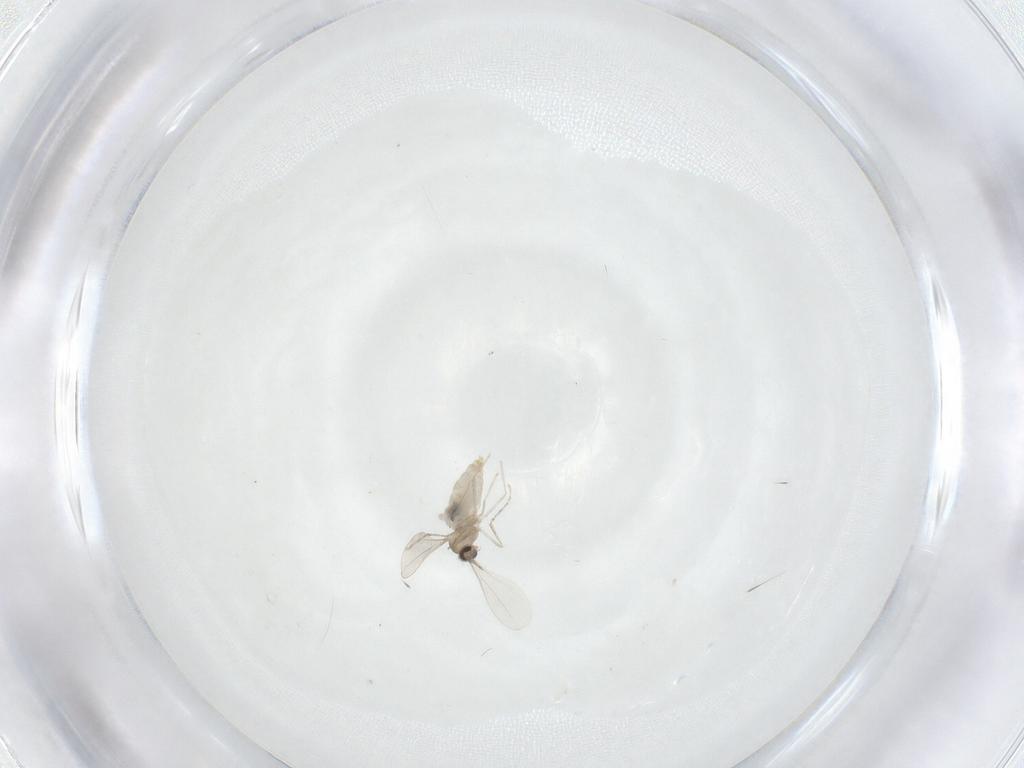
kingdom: Animalia
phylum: Arthropoda
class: Insecta
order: Diptera
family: Cecidomyiidae
